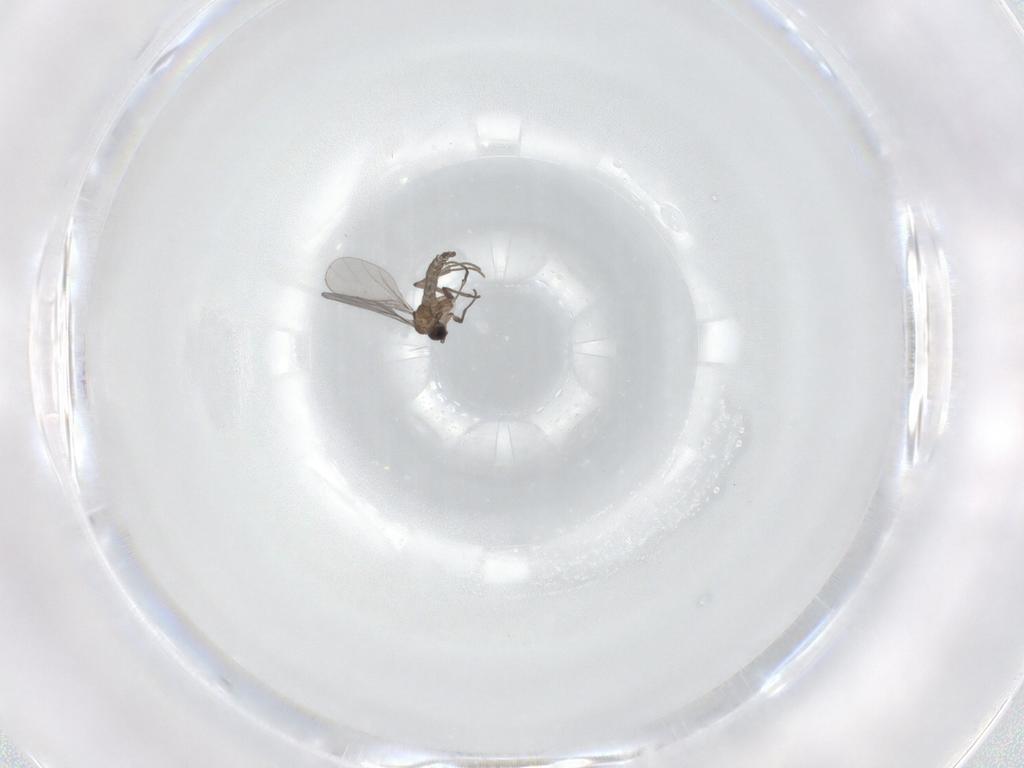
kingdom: Animalia
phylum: Arthropoda
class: Insecta
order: Diptera
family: Sciaridae
